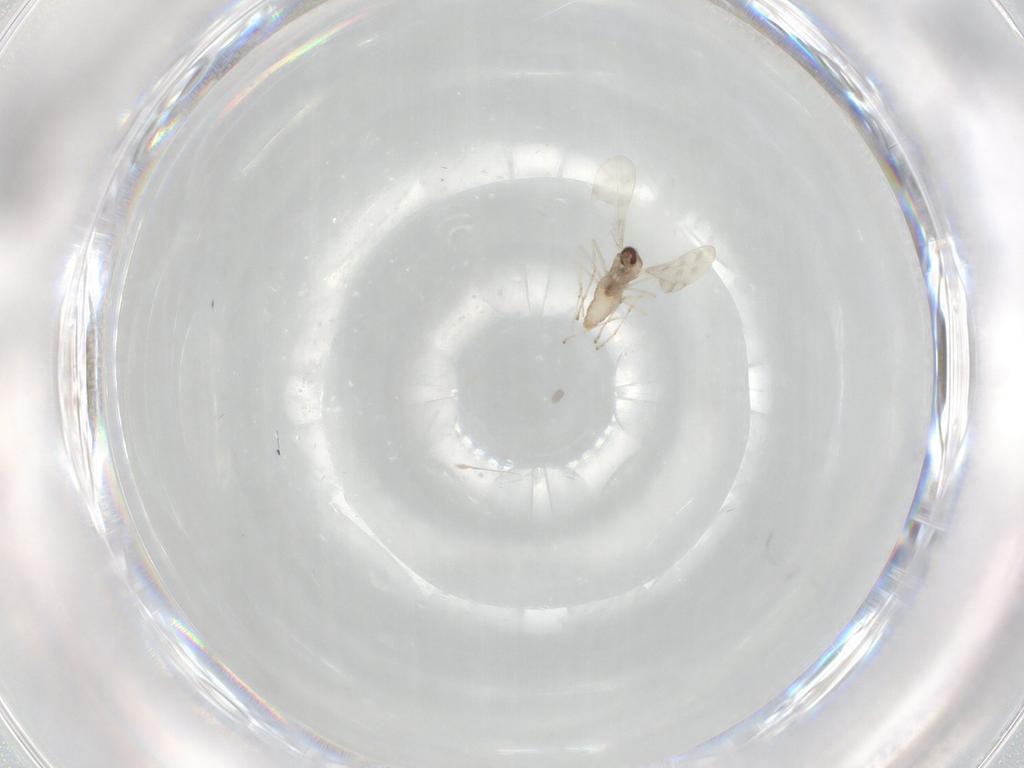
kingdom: Animalia
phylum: Arthropoda
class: Insecta
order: Diptera
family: Cecidomyiidae
